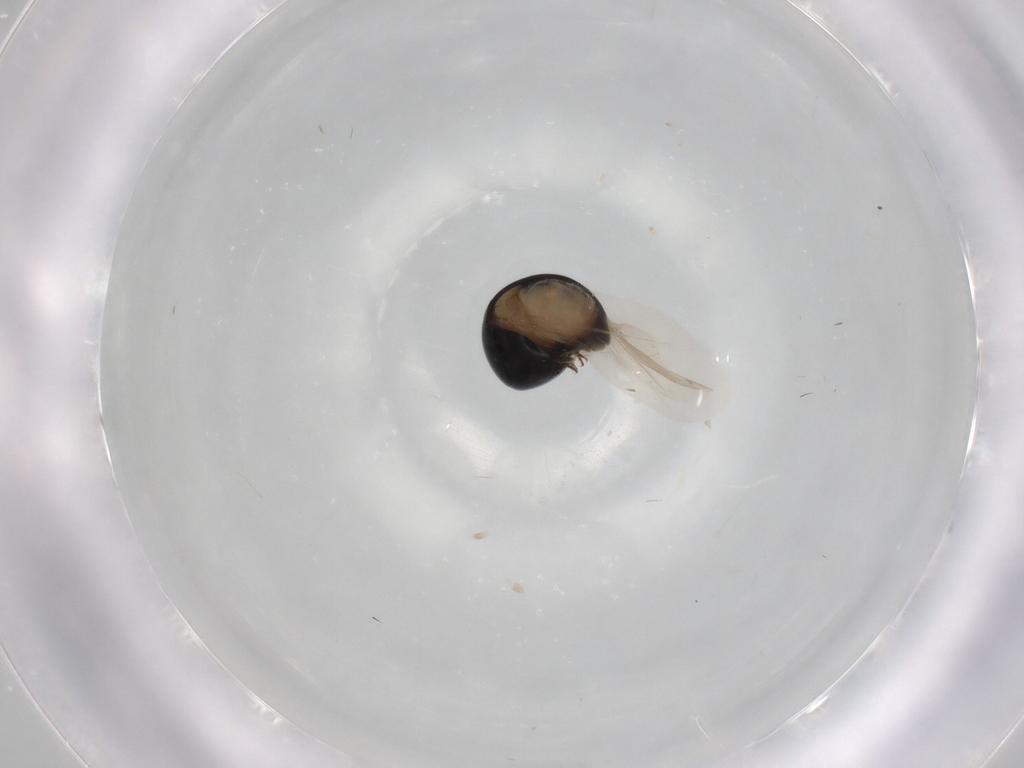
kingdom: Animalia
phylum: Arthropoda
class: Insecta
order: Coleoptera
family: Cybocephalidae
